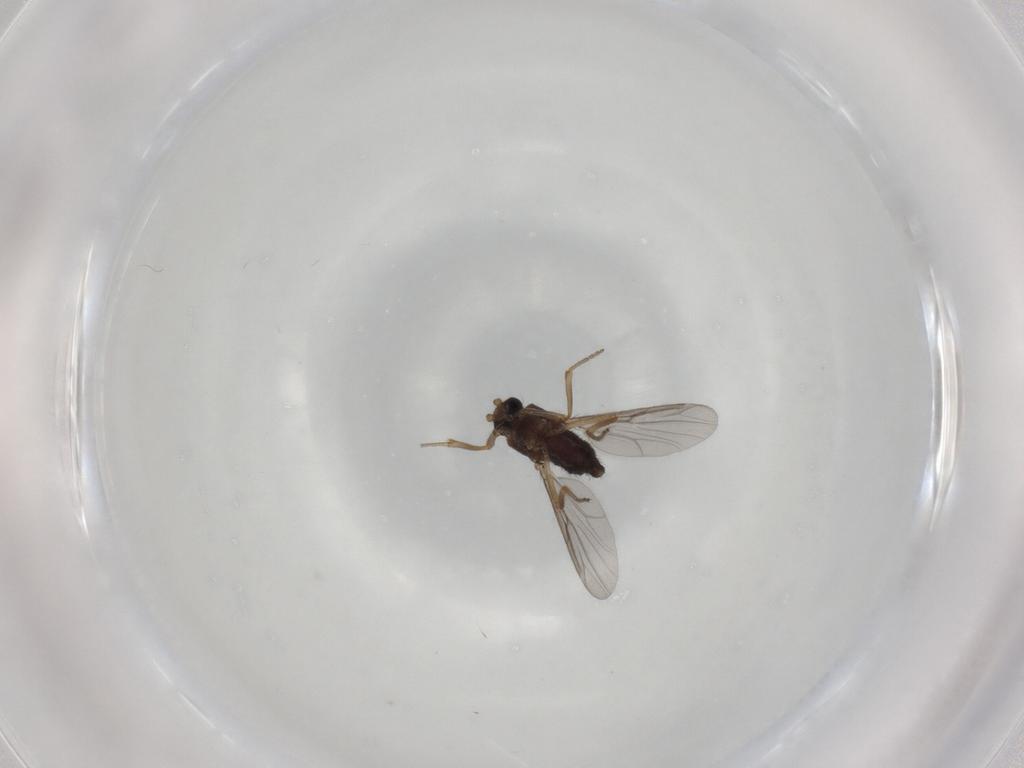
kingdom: Animalia
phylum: Arthropoda
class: Insecta
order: Diptera
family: Ceratopogonidae
